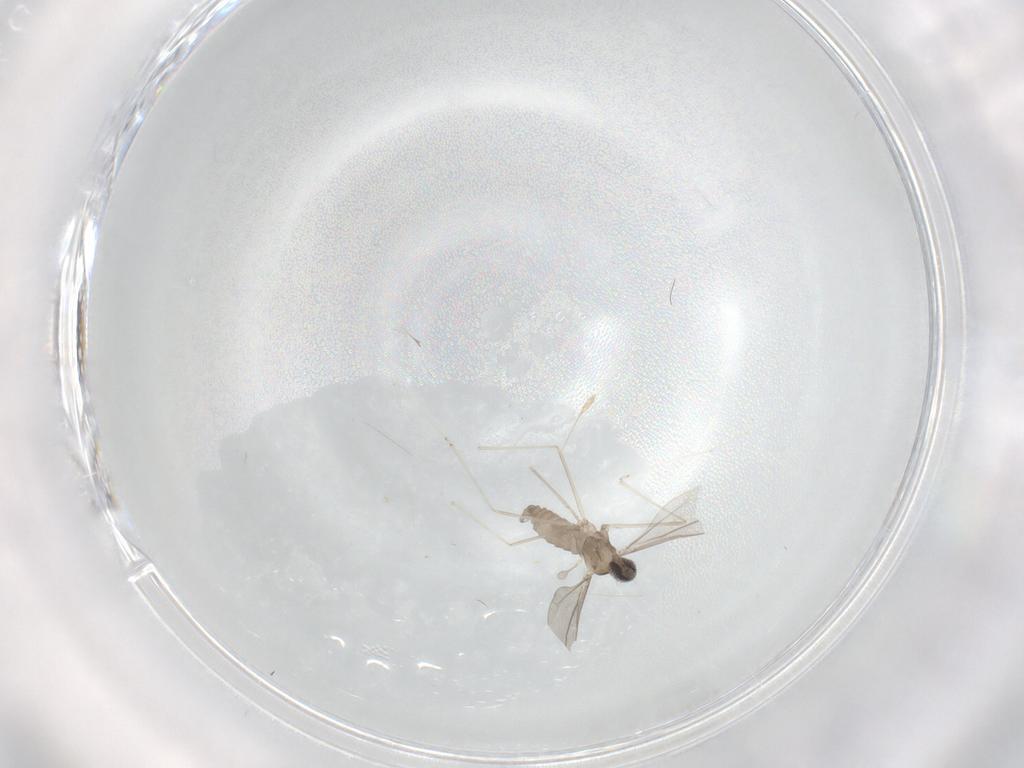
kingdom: Animalia
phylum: Arthropoda
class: Insecta
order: Diptera
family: Cecidomyiidae
